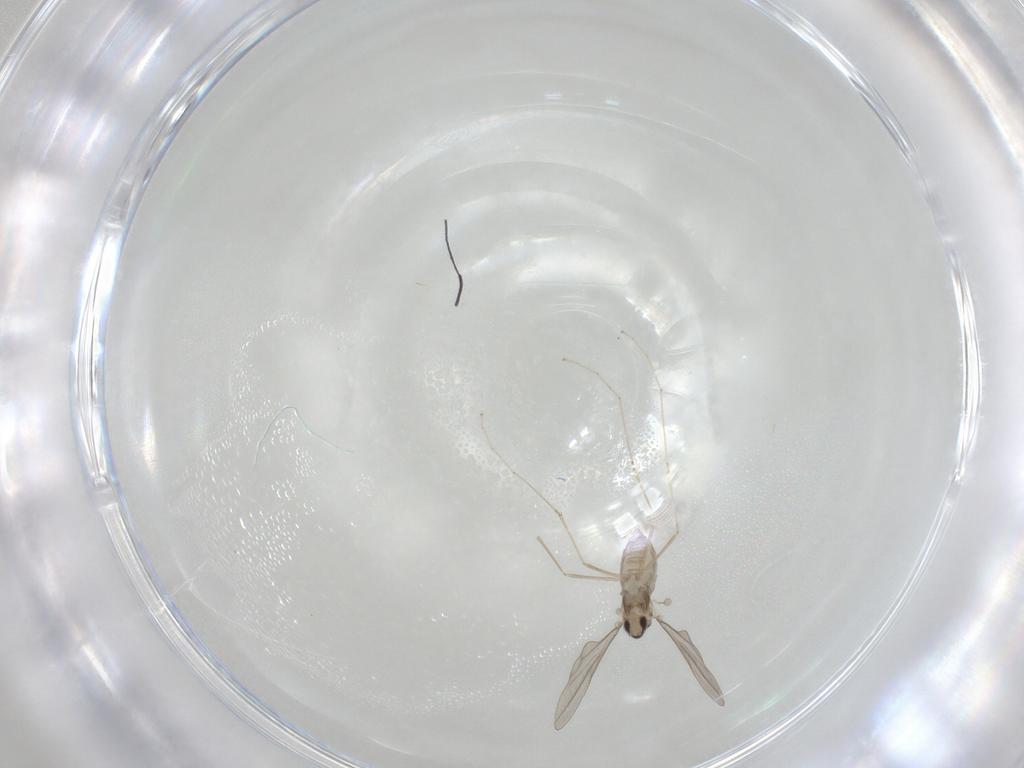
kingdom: Animalia
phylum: Arthropoda
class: Insecta
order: Diptera
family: Cecidomyiidae
